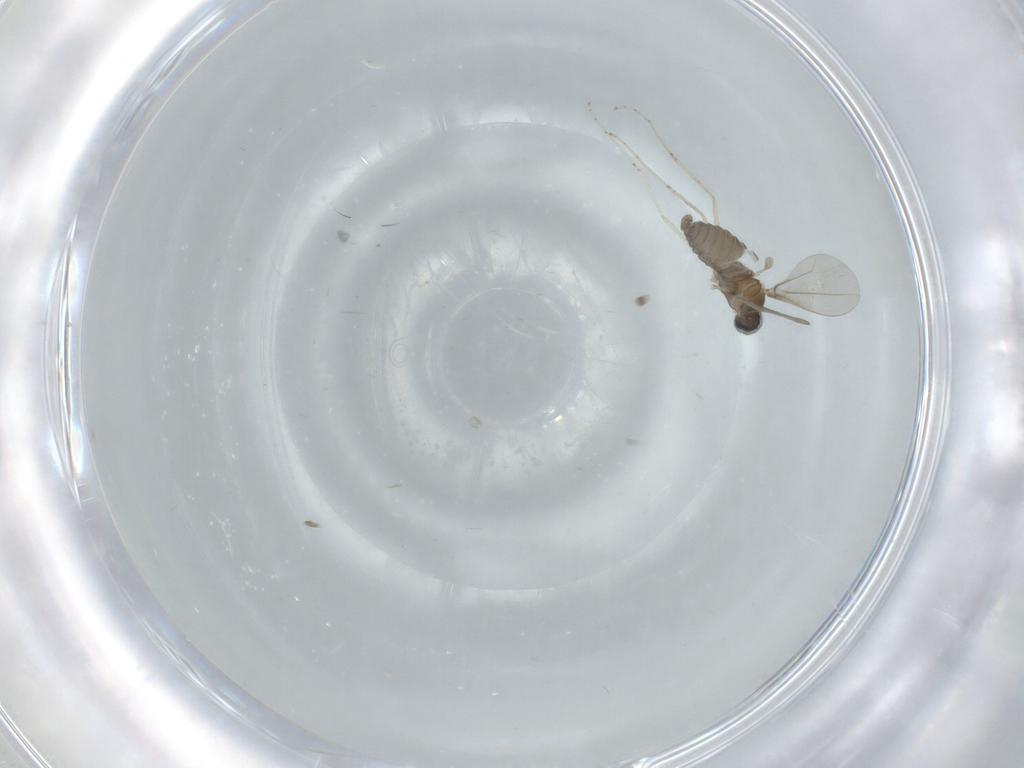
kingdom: Animalia
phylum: Arthropoda
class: Insecta
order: Diptera
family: Cecidomyiidae
